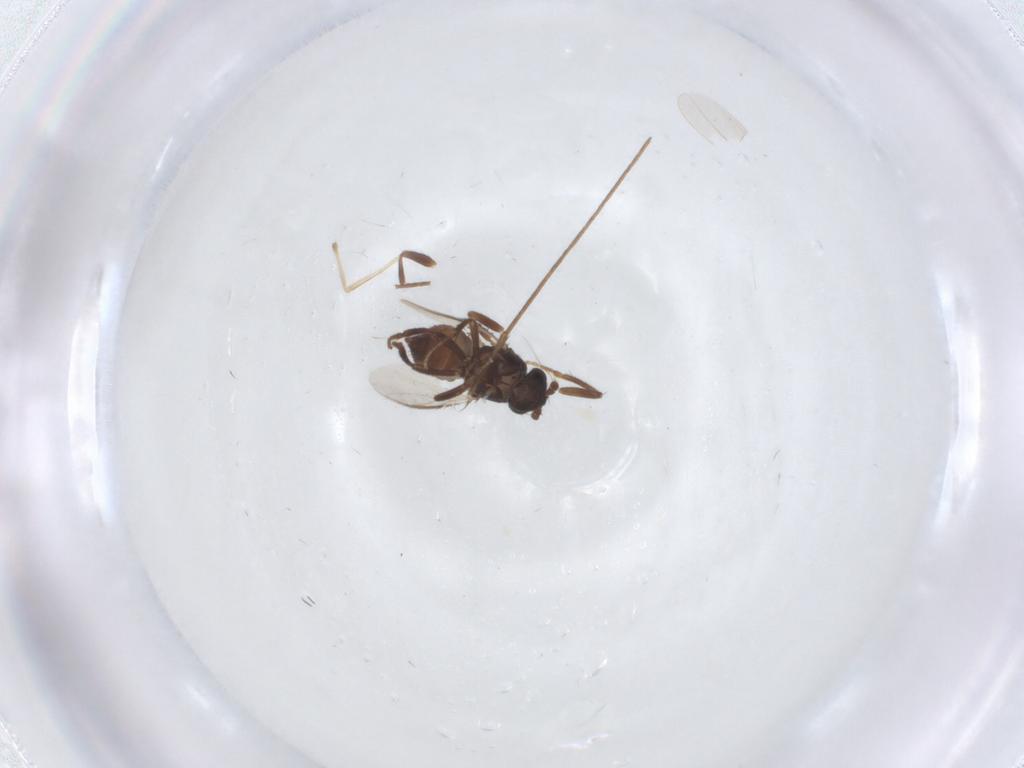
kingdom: Animalia
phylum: Arthropoda
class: Insecta
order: Diptera
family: Sphaeroceridae
